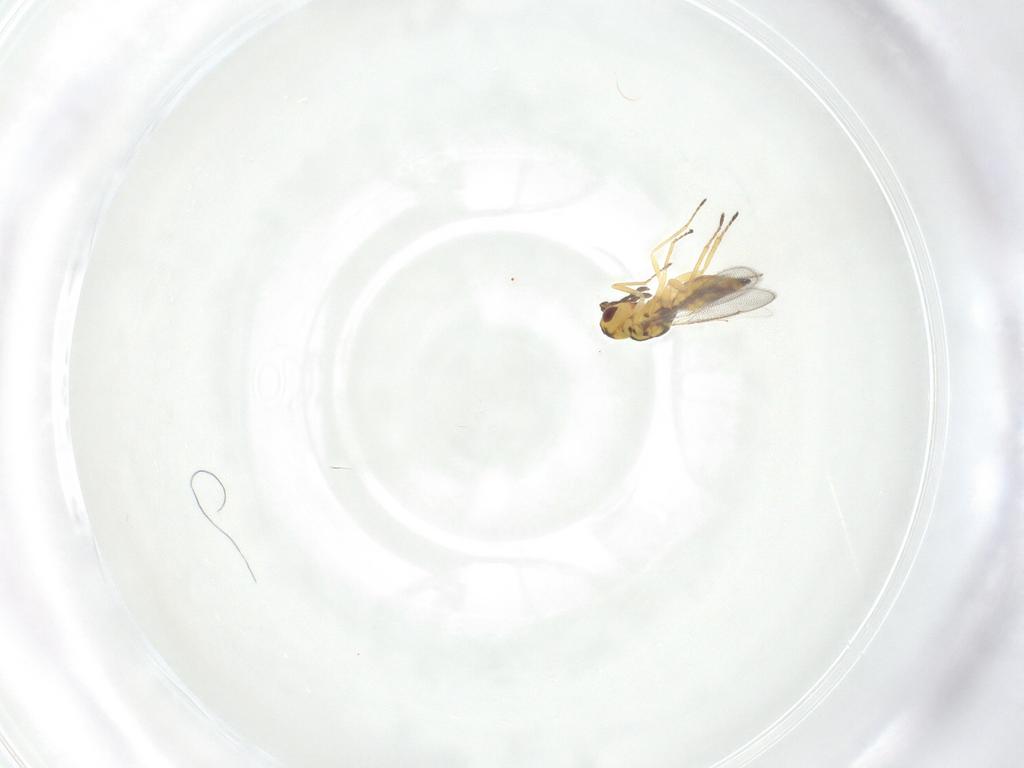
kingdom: Animalia
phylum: Arthropoda
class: Insecta
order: Hymenoptera
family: Eulophidae
